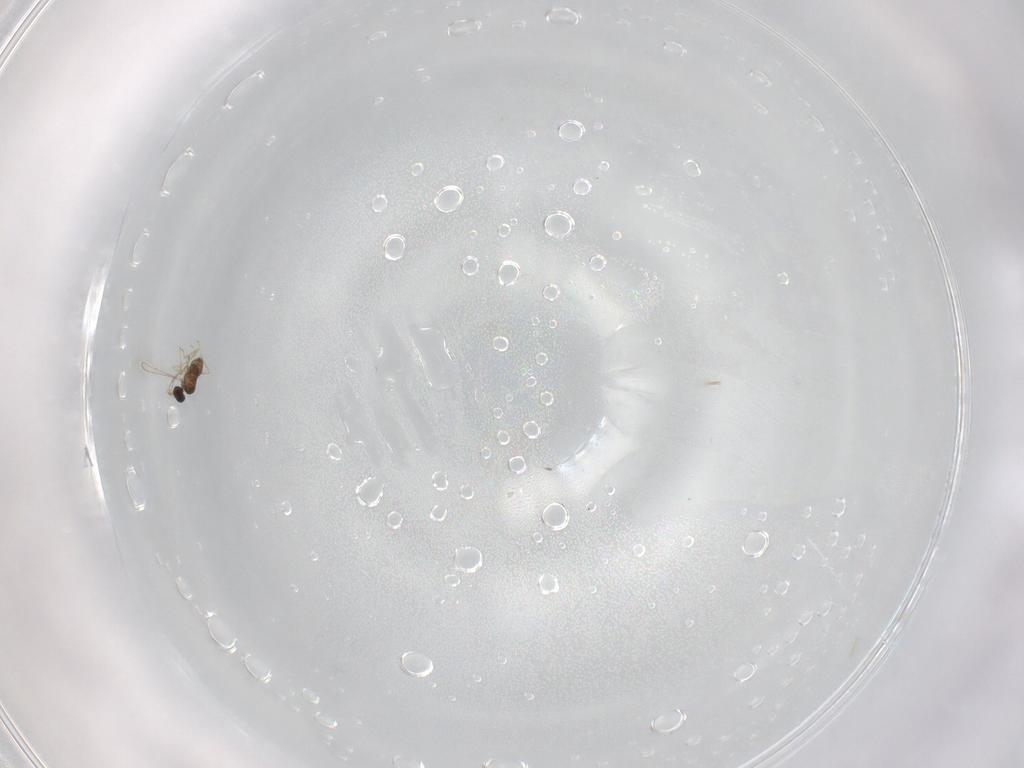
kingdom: Animalia
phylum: Arthropoda
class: Insecta
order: Hymenoptera
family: Mymaridae
